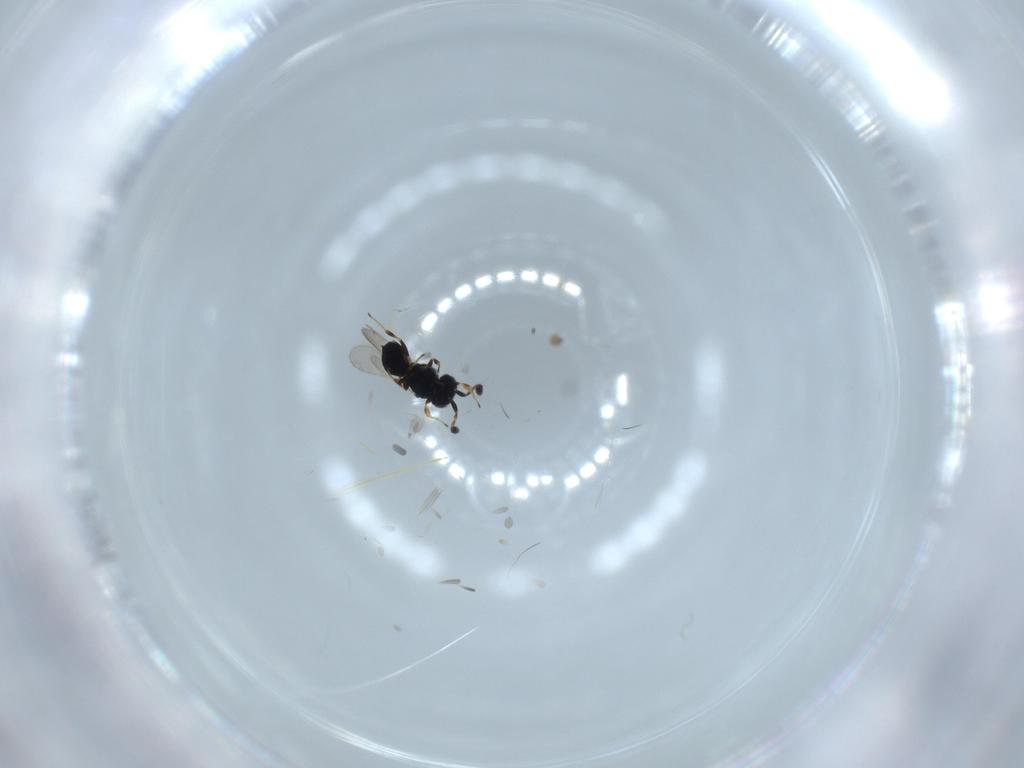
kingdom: Animalia
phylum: Arthropoda
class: Insecta
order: Hymenoptera
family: Scelionidae
